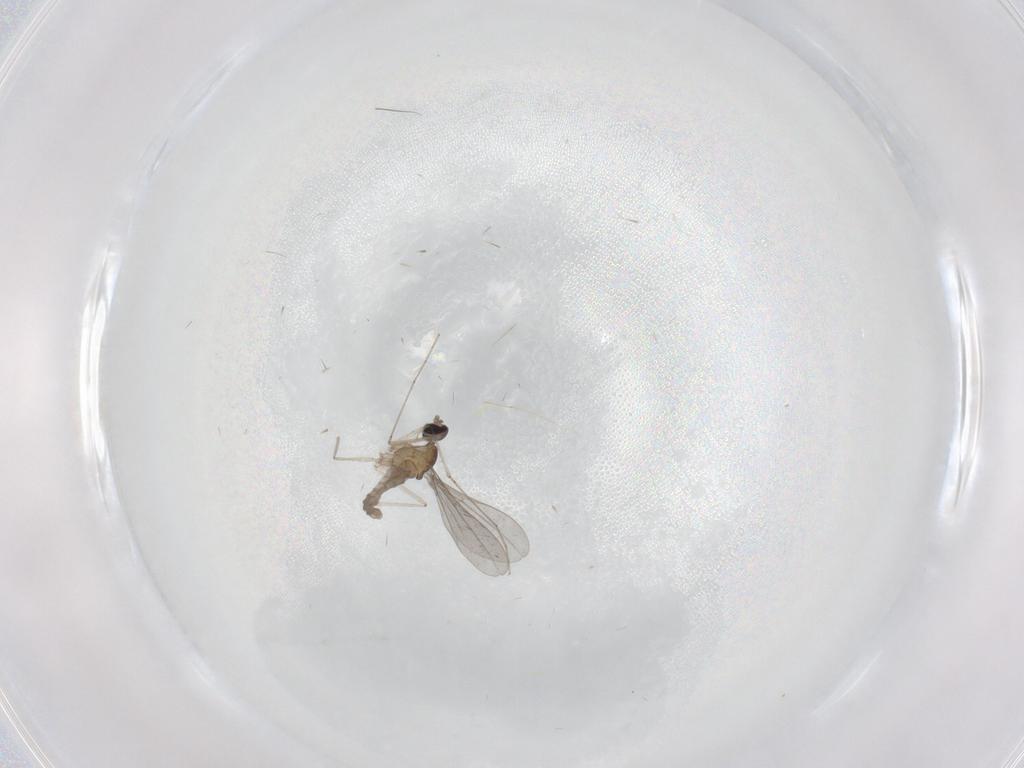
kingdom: Animalia
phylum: Arthropoda
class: Insecta
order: Diptera
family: Cecidomyiidae
